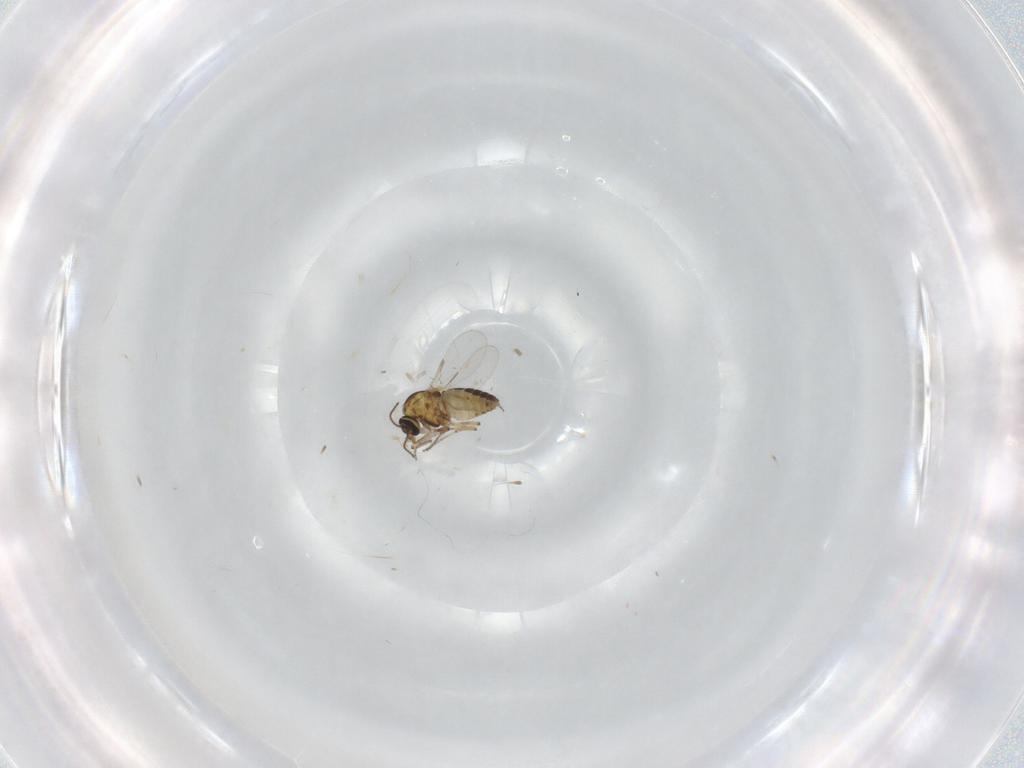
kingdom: Animalia
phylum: Arthropoda
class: Insecta
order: Diptera
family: Ceratopogonidae
